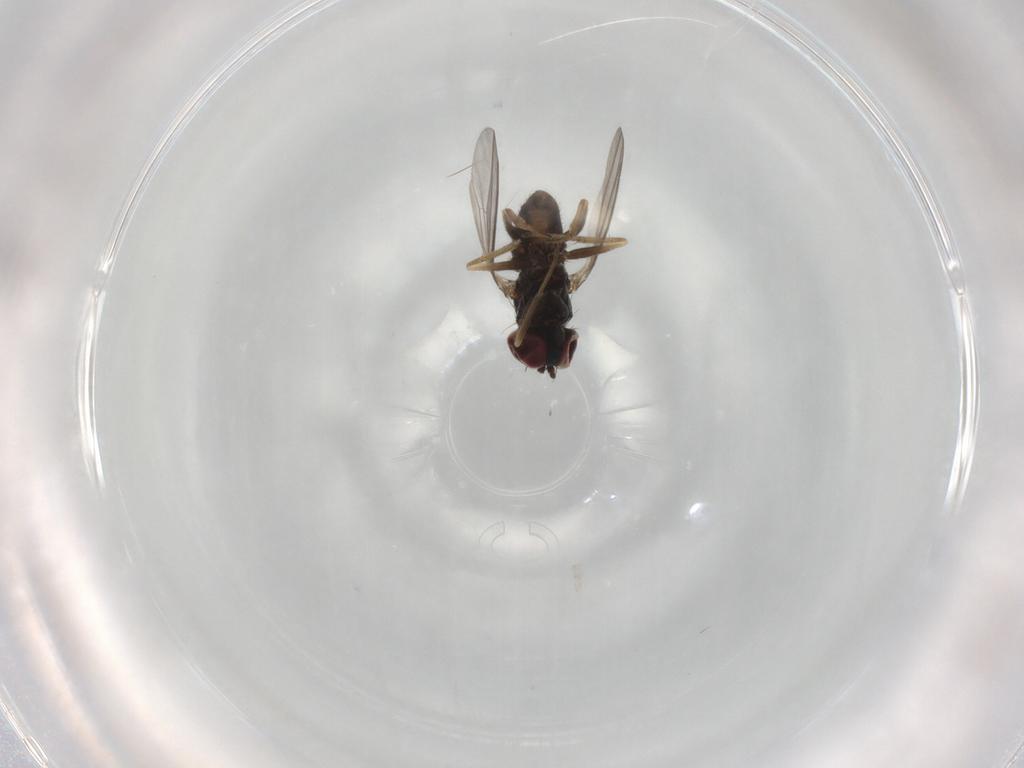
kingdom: Animalia
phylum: Arthropoda
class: Insecta
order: Diptera
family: Dolichopodidae
